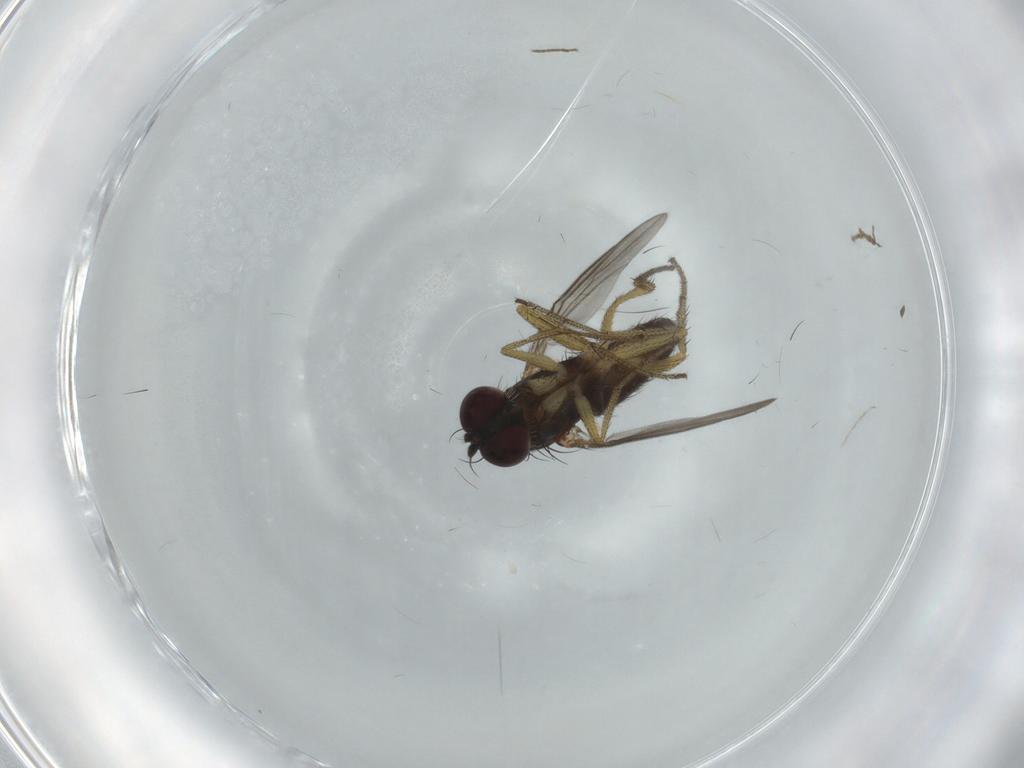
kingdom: Animalia
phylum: Arthropoda
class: Insecta
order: Diptera
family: Dolichopodidae
